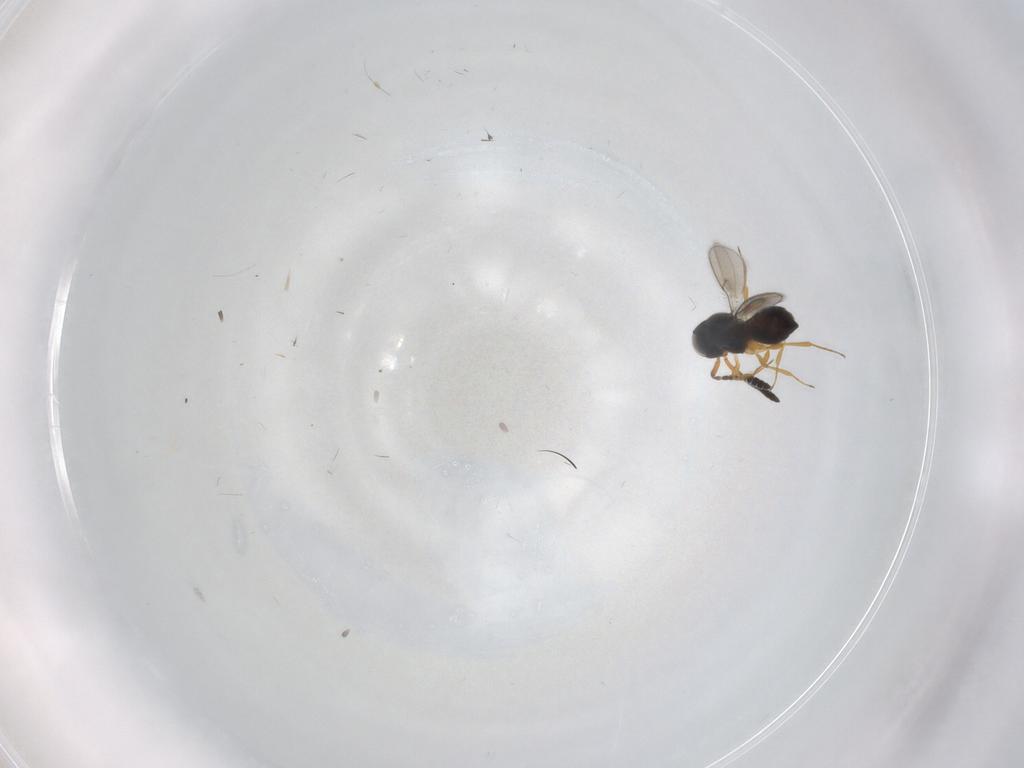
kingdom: Animalia
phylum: Arthropoda
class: Insecta
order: Hymenoptera
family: Scelionidae
